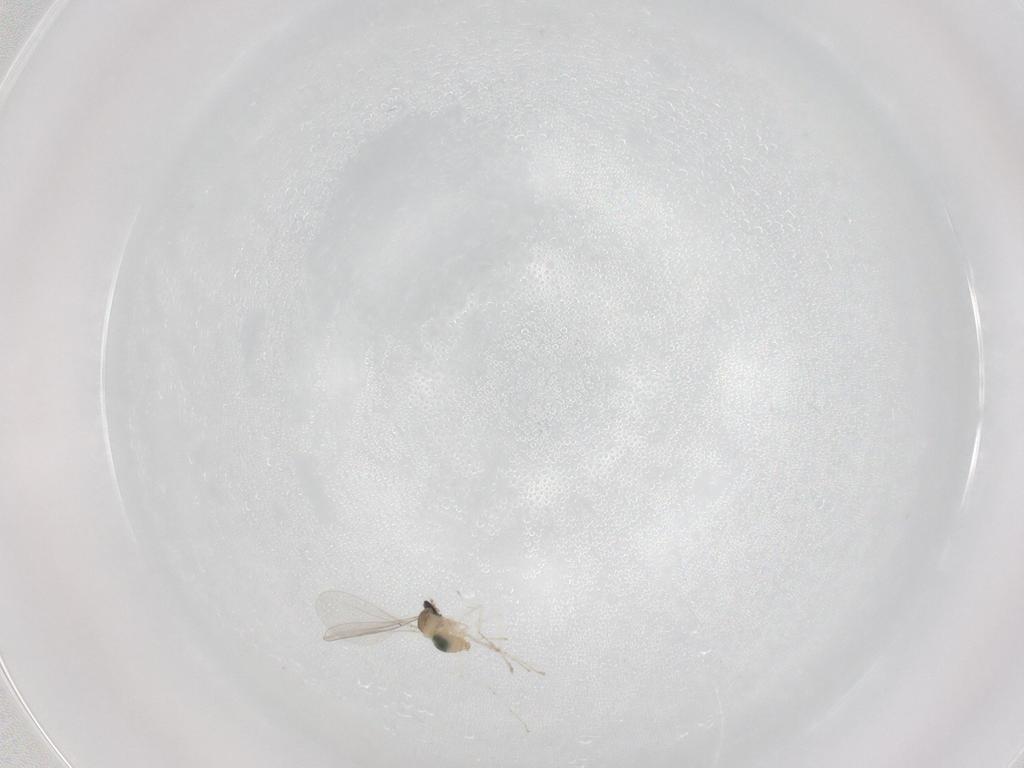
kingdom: Animalia
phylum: Arthropoda
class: Insecta
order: Diptera
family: Cecidomyiidae
